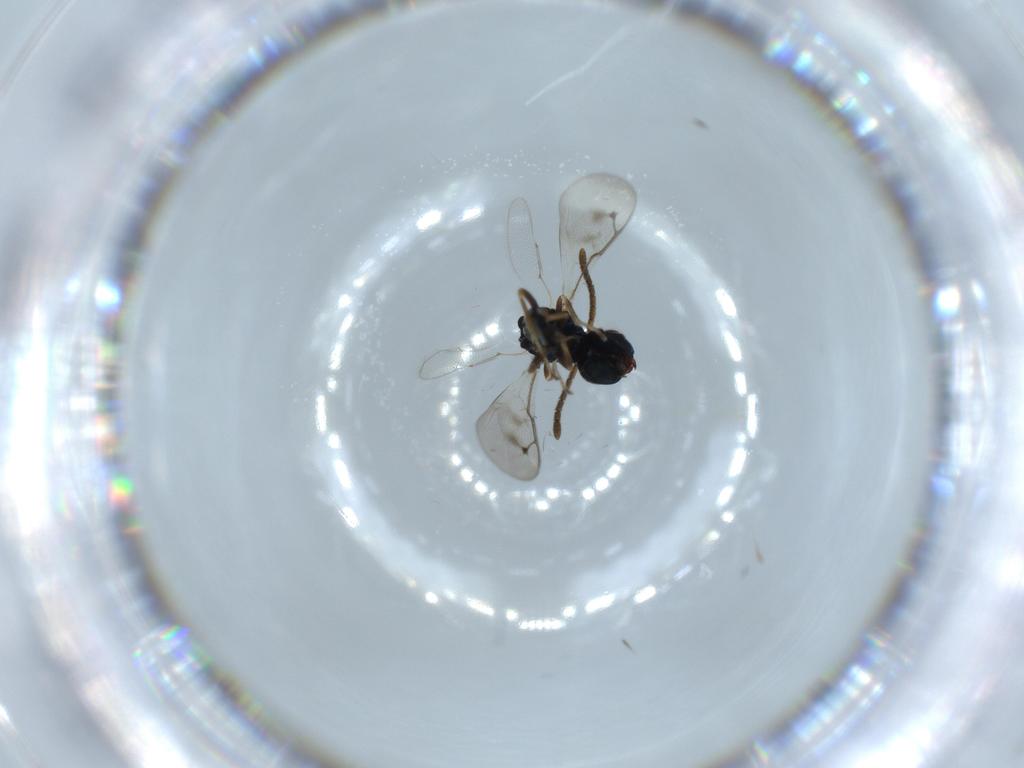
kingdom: Animalia
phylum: Arthropoda
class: Insecta
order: Hymenoptera
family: Pteromalidae
